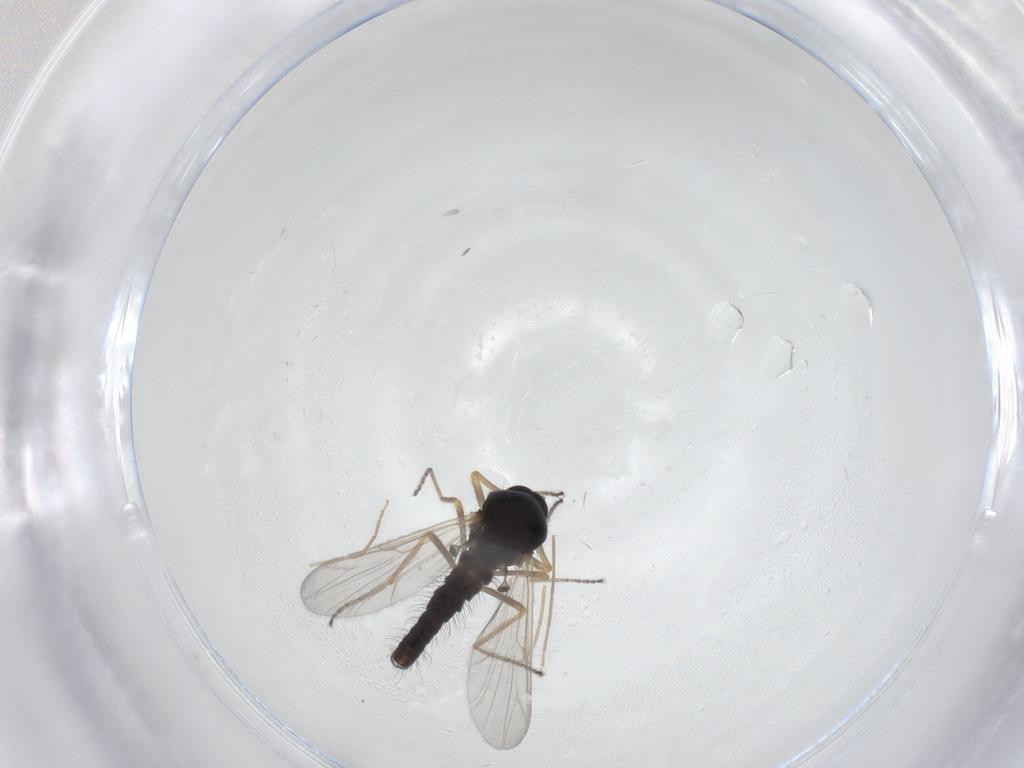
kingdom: Animalia
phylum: Arthropoda
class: Insecta
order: Diptera
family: Ceratopogonidae
